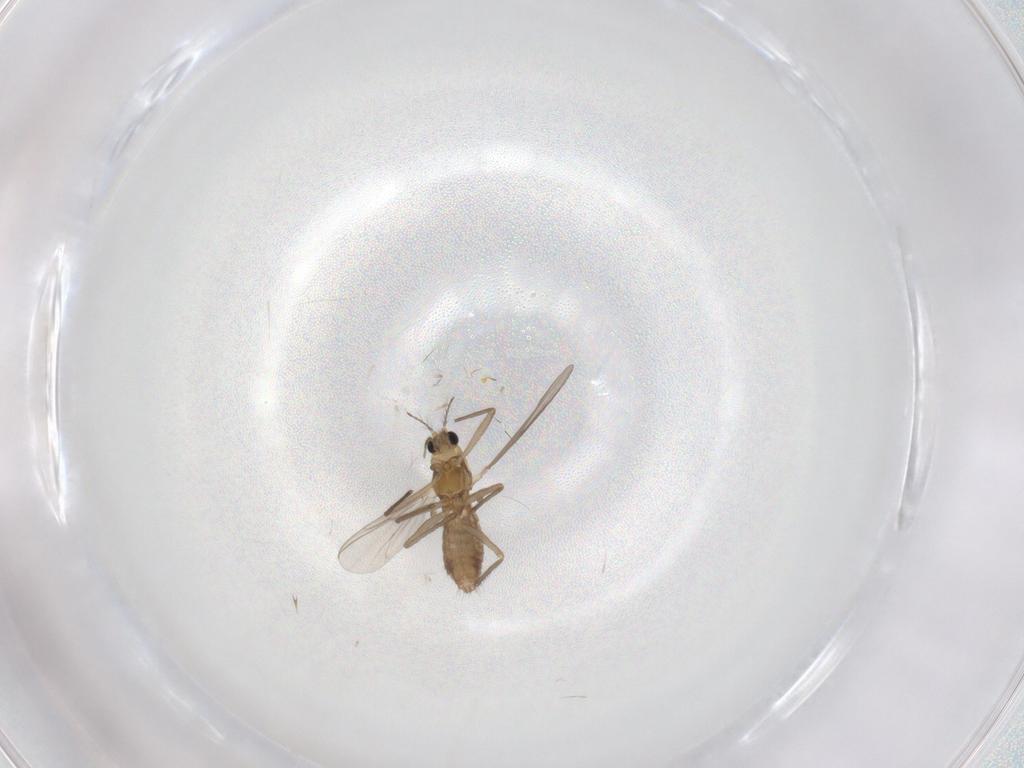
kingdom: Animalia
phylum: Arthropoda
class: Insecta
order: Diptera
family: Chironomidae
